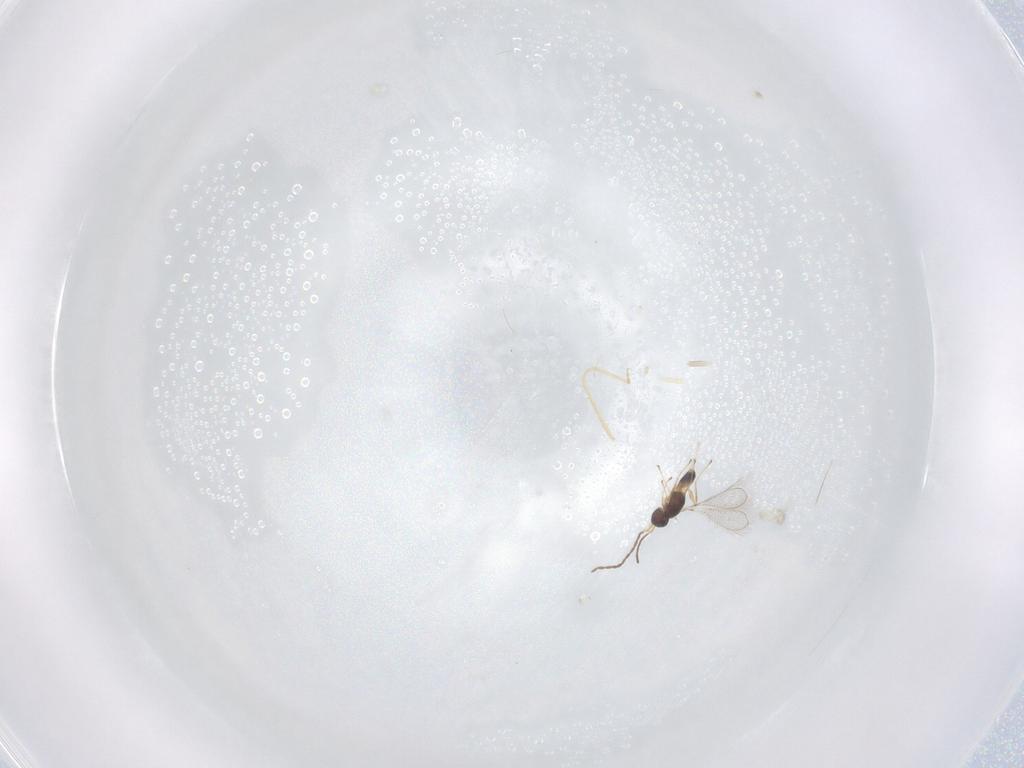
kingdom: Animalia
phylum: Arthropoda
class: Insecta
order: Hymenoptera
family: Mymaridae
